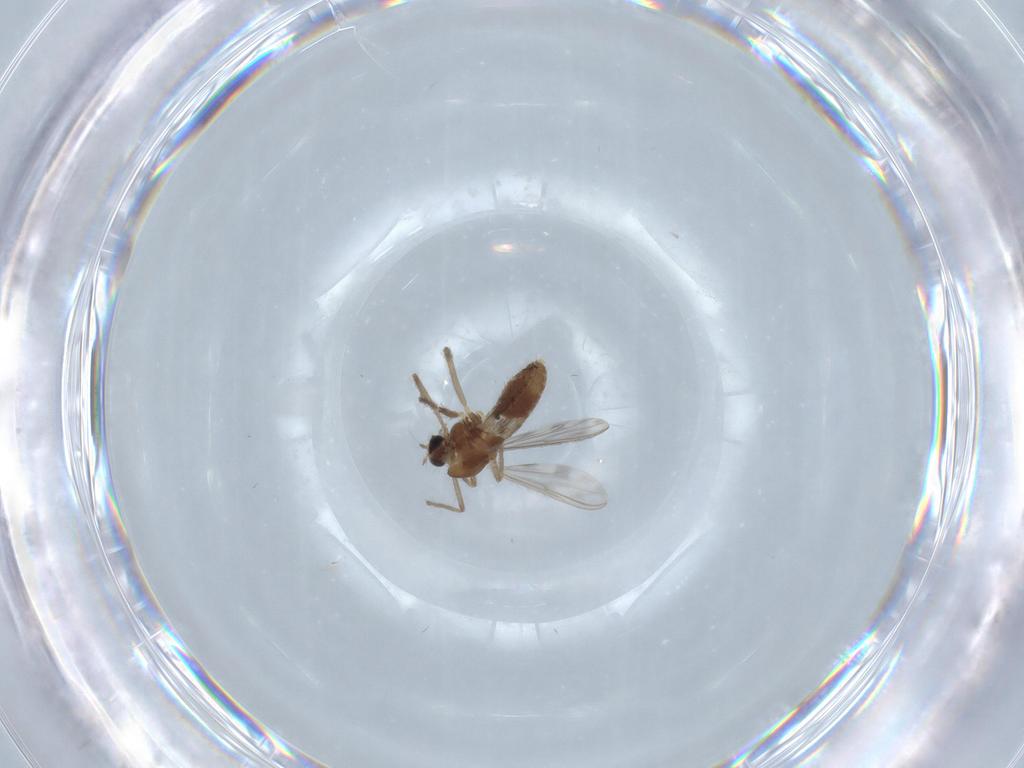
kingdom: Animalia
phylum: Arthropoda
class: Insecta
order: Diptera
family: Chironomidae
